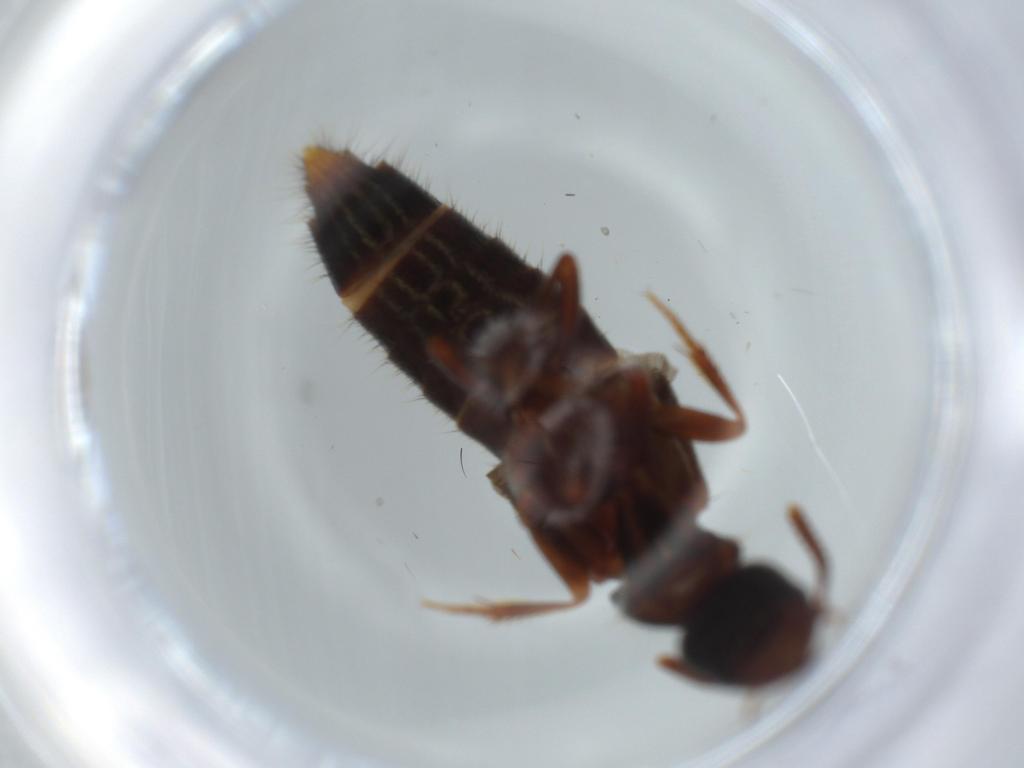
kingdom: Animalia
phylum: Arthropoda
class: Insecta
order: Coleoptera
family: Staphylinidae
